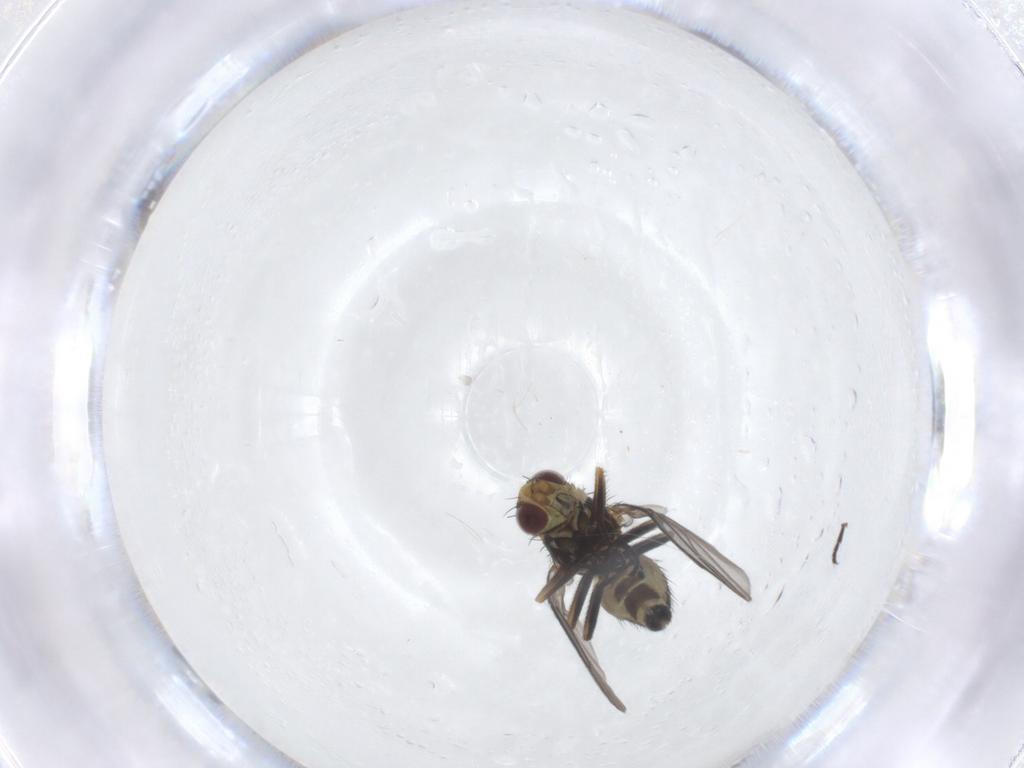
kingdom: Animalia
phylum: Arthropoda
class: Insecta
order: Diptera
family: Agromyzidae
